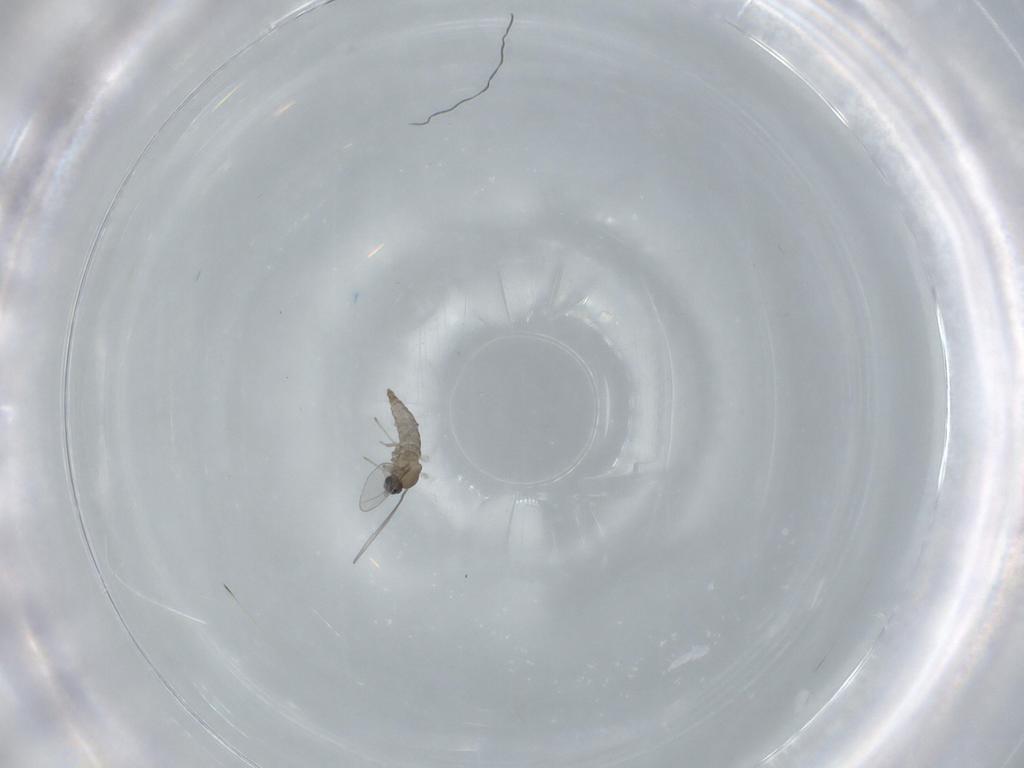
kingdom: Animalia
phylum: Arthropoda
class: Insecta
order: Diptera
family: Cecidomyiidae
